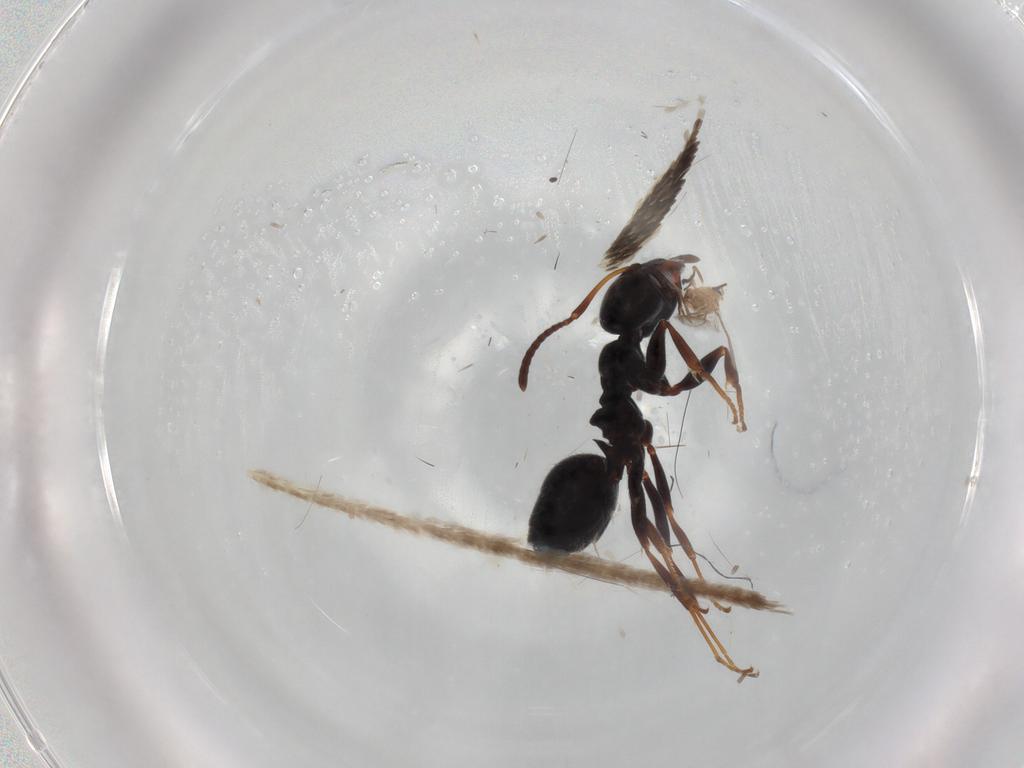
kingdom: Animalia
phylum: Arthropoda
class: Insecta
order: Hymenoptera
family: Formicidae
